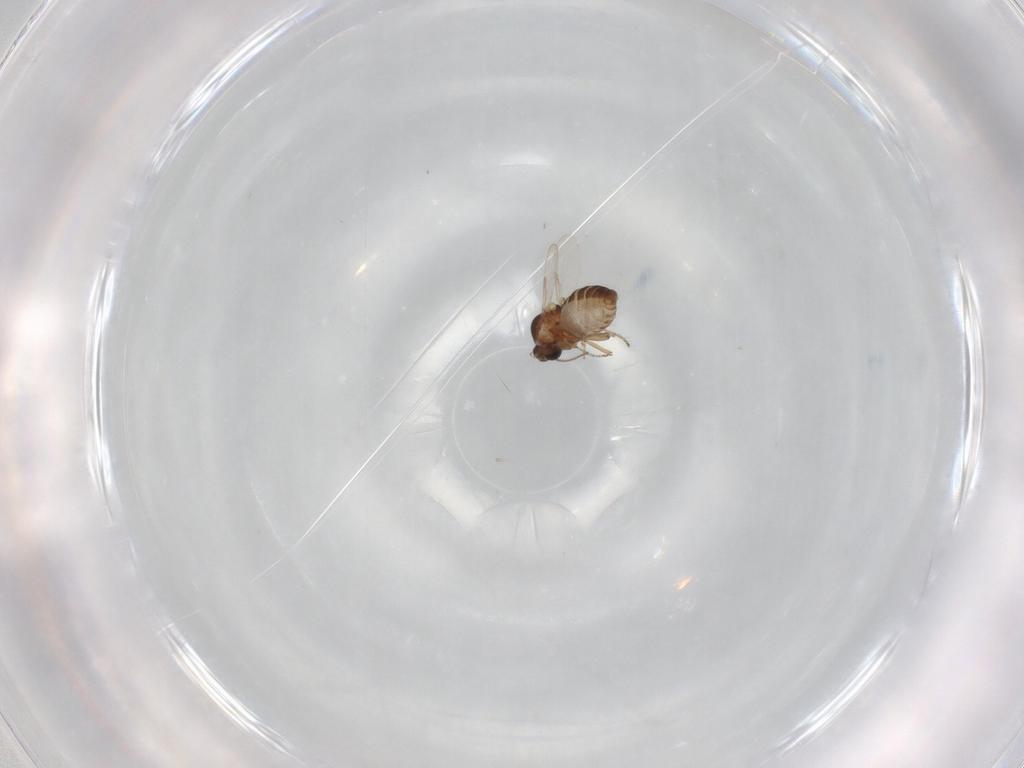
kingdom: Animalia
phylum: Arthropoda
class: Insecta
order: Diptera
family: Ceratopogonidae
